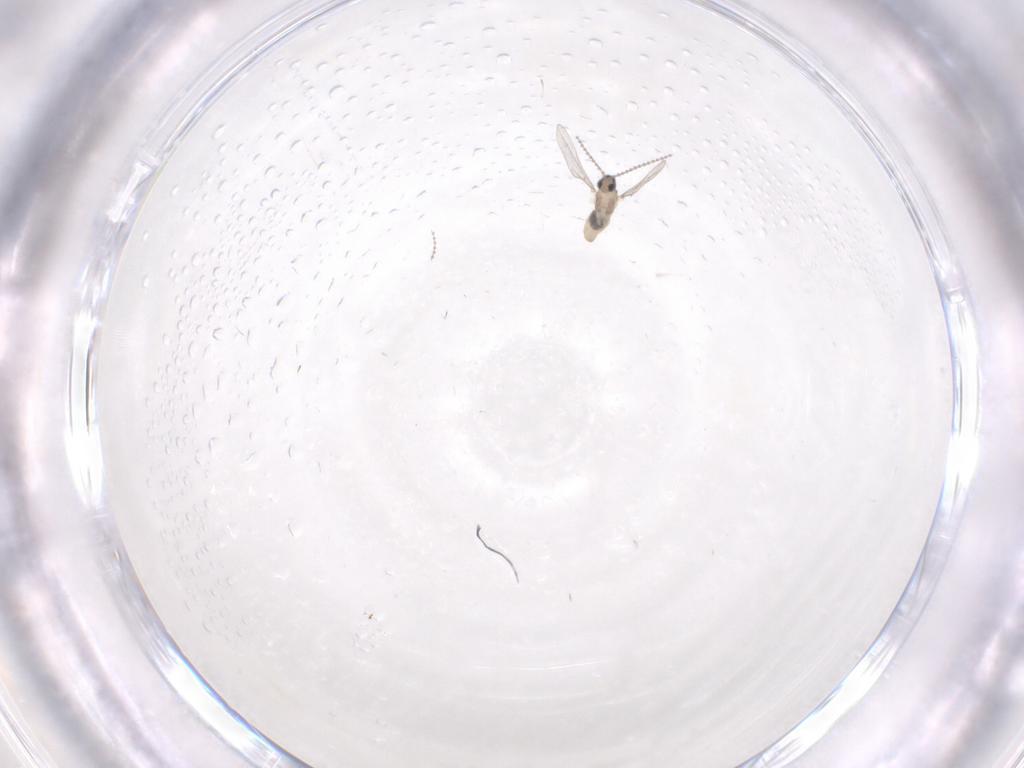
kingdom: Animalia
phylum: Arthropoda
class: Insecta
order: Diptera
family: Cecidomyiidae
